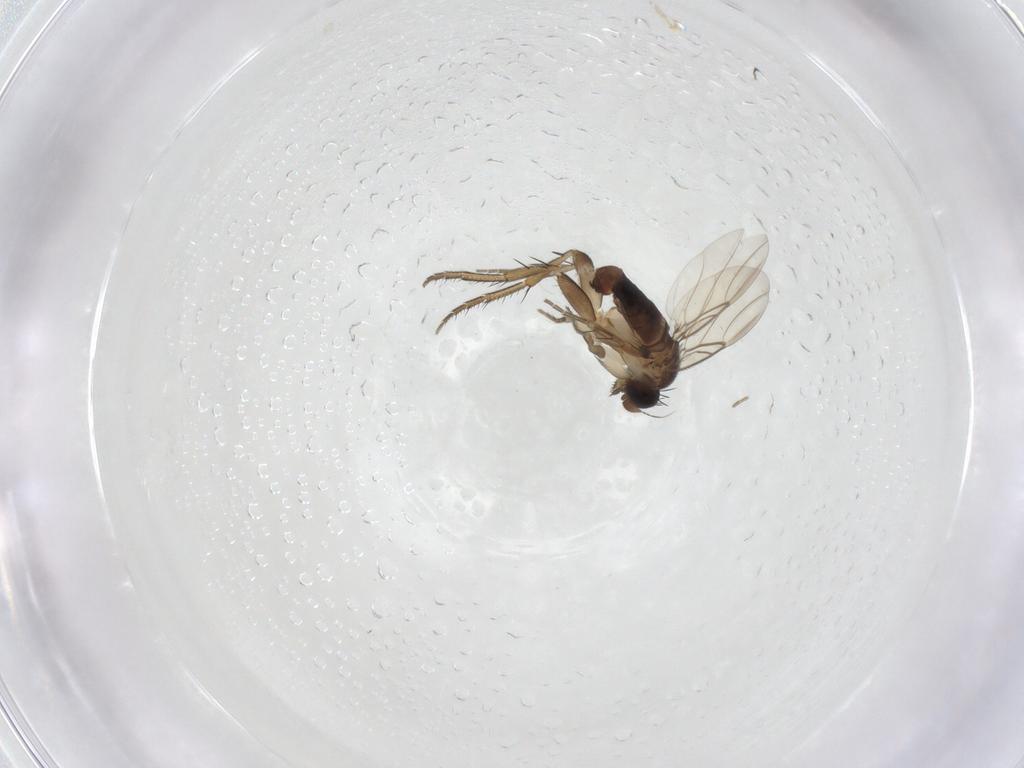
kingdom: Animalia
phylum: Arthropoda
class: Insecta
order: Diptera
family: Phoridae
